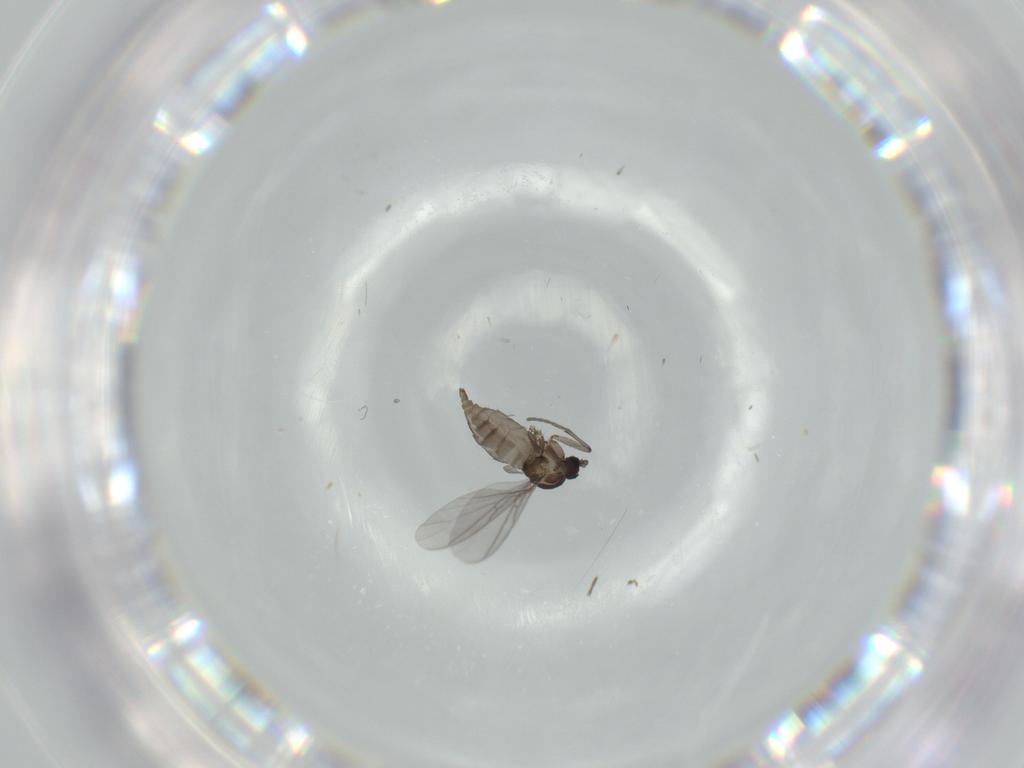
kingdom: Animalia
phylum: Arthropoda
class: Insecta
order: Diptera
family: Sciaridae
